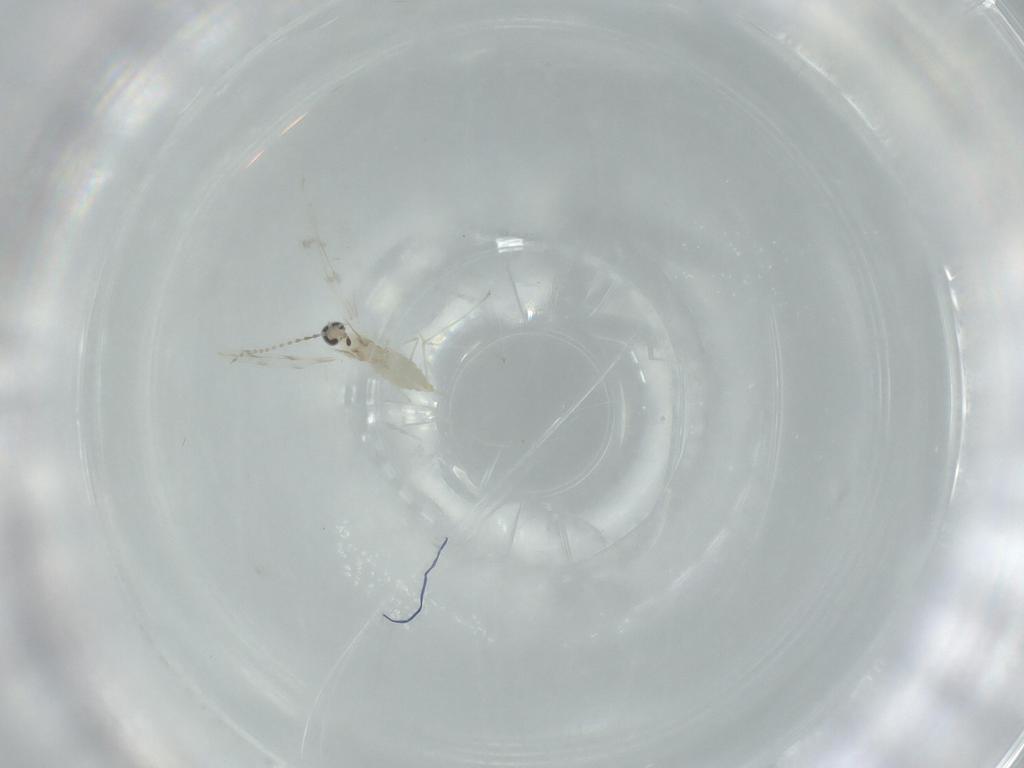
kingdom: Animalia
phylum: Arthropoda
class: Insecta
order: Diptera
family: Cecidomyiidae
